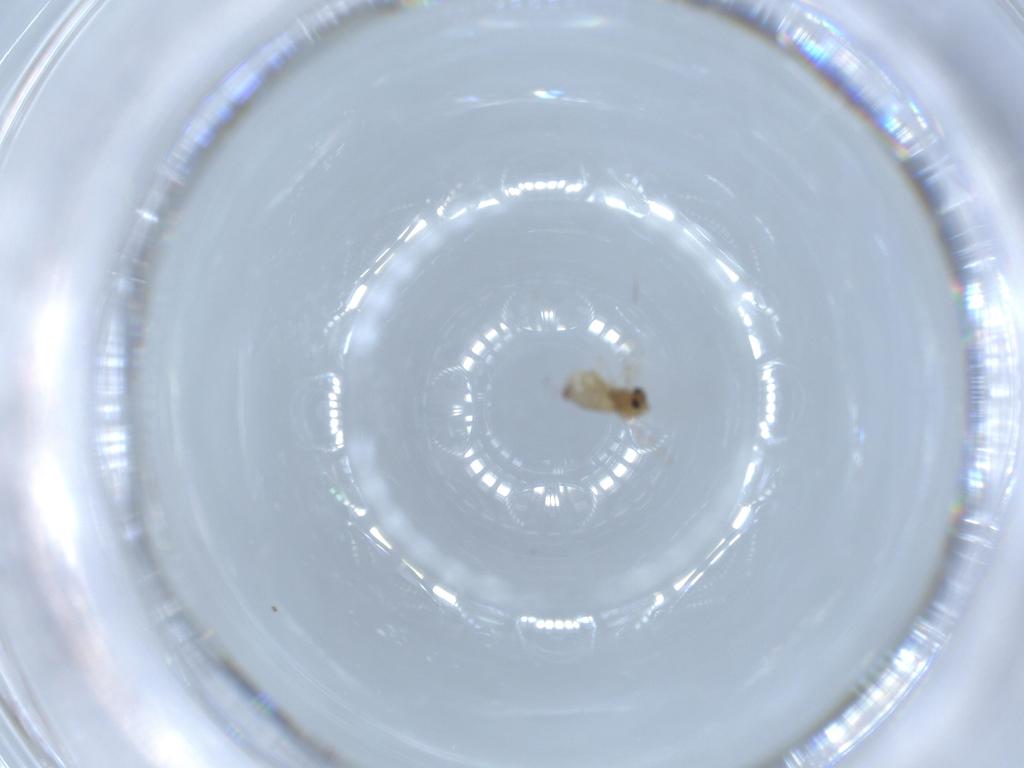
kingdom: Animalia
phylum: Arthropoda
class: Insecta
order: Diptera
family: Chironomidae
